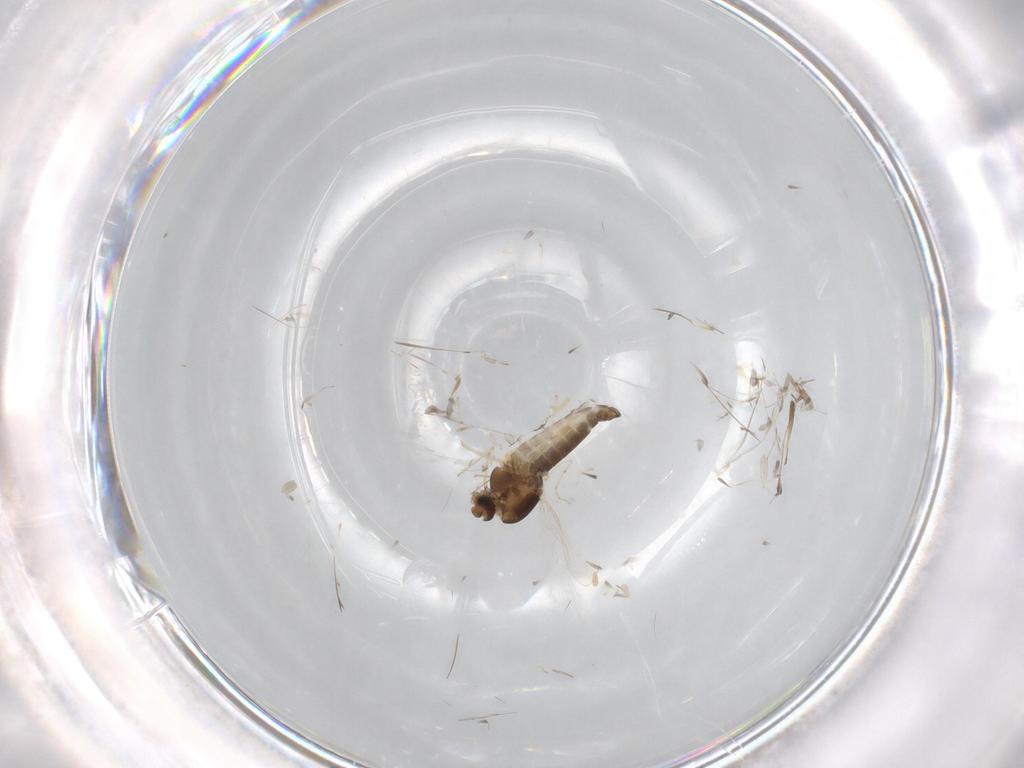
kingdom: Animalia
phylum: Arthropoda
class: Insecta
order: Diptera
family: Chironomidae
